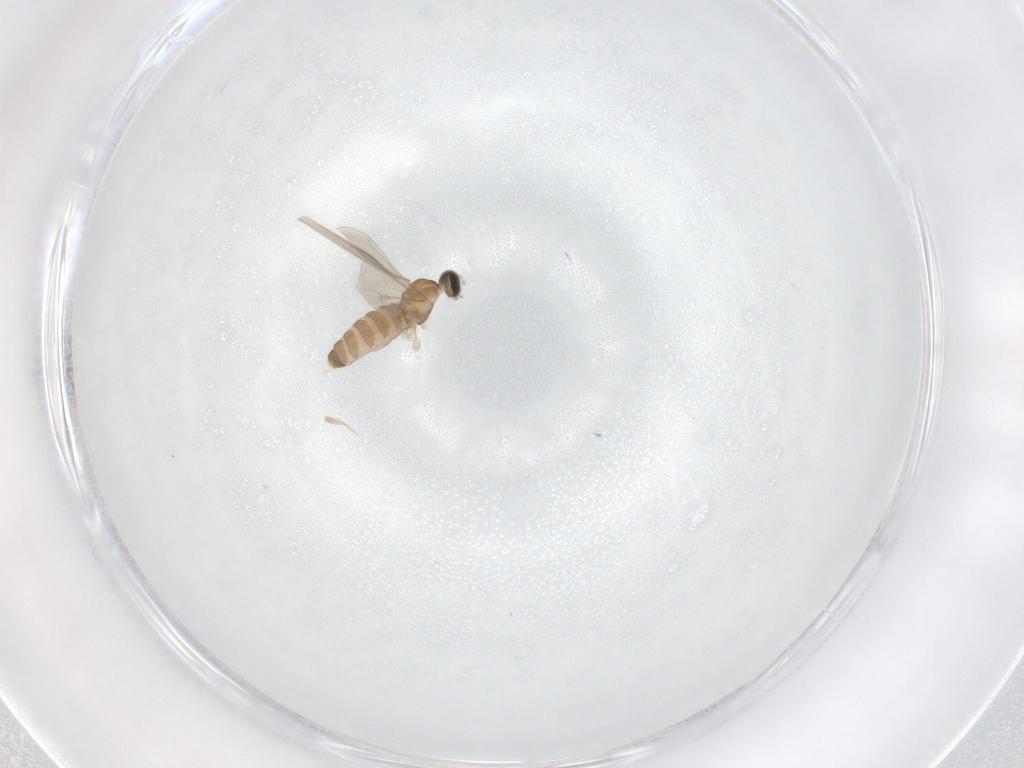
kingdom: Animalia
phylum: Arthropoda
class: Insecta
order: Diptera
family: Cecidomyiidae
